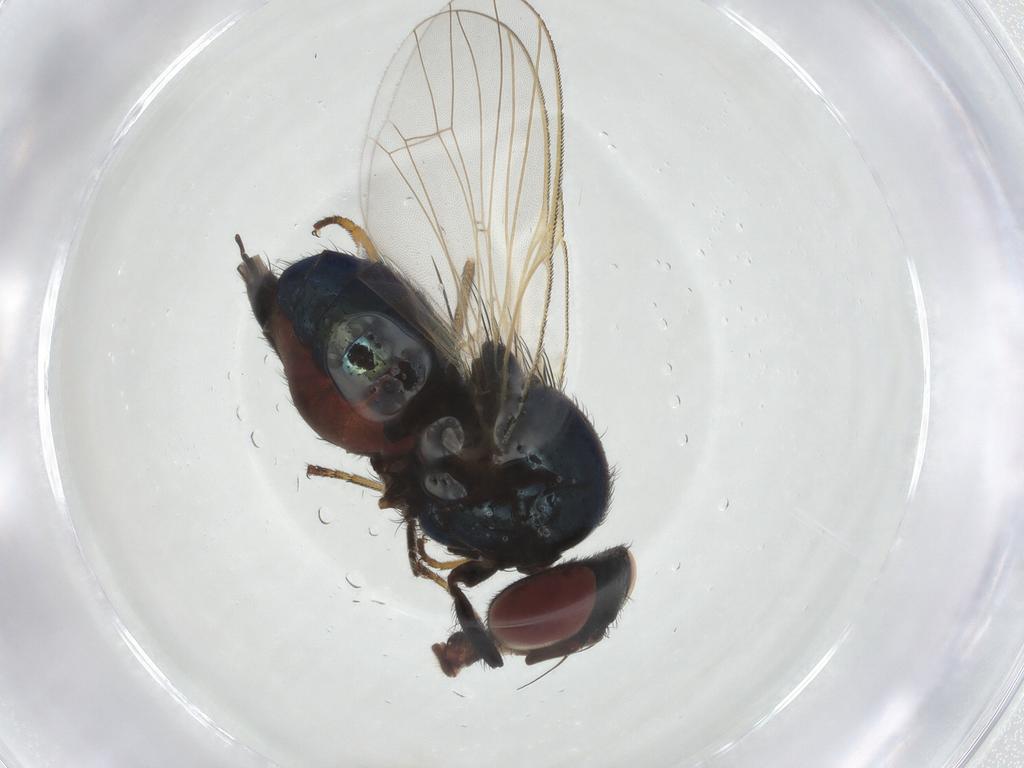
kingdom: Animalia
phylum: Arthropoda
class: Insecta
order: Diptera
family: Lonchaeidae
